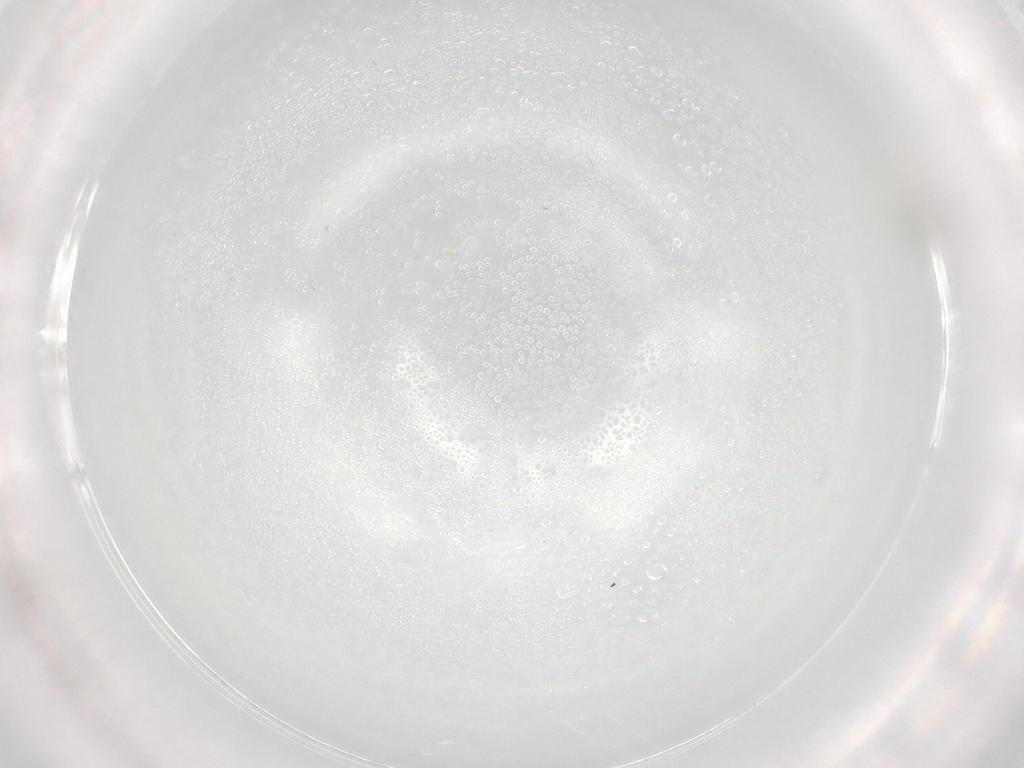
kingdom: Animalia
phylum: Arthropoda
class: Insecta
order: Diptera
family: Cecidomyiidae
